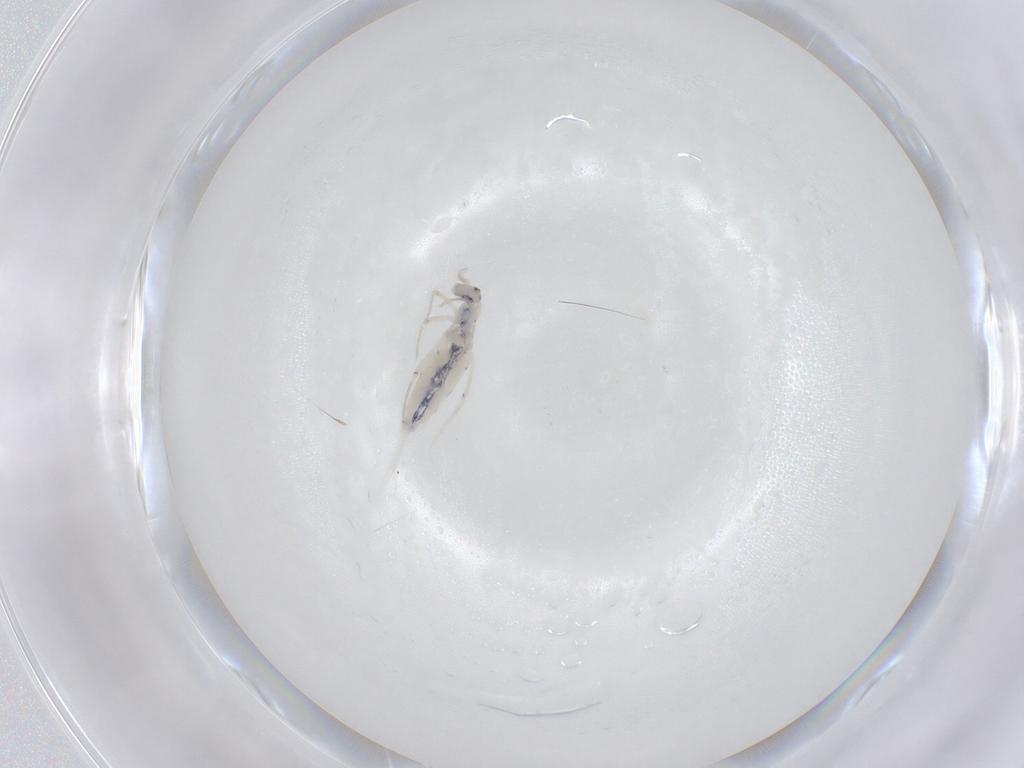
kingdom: Animalia
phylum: Arthropoda
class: Collembola
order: Entomobryomorpha
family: Entomobryidae
